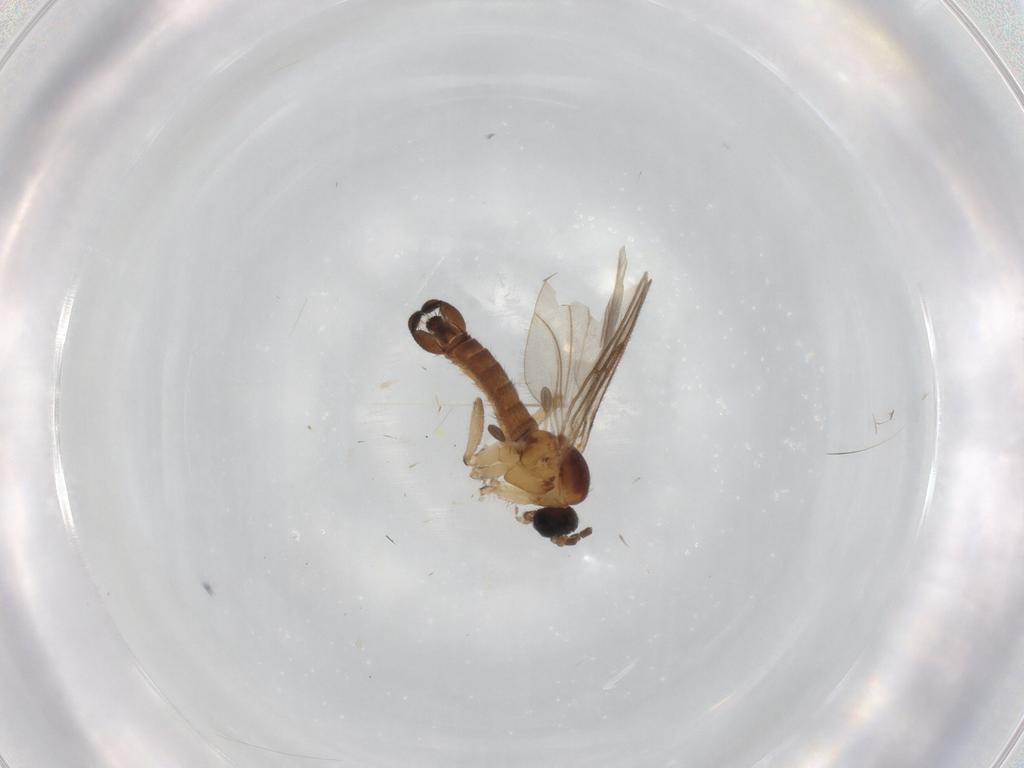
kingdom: Animalia
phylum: Arthropoda
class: Insecta
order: Diptera
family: Sciaridae
